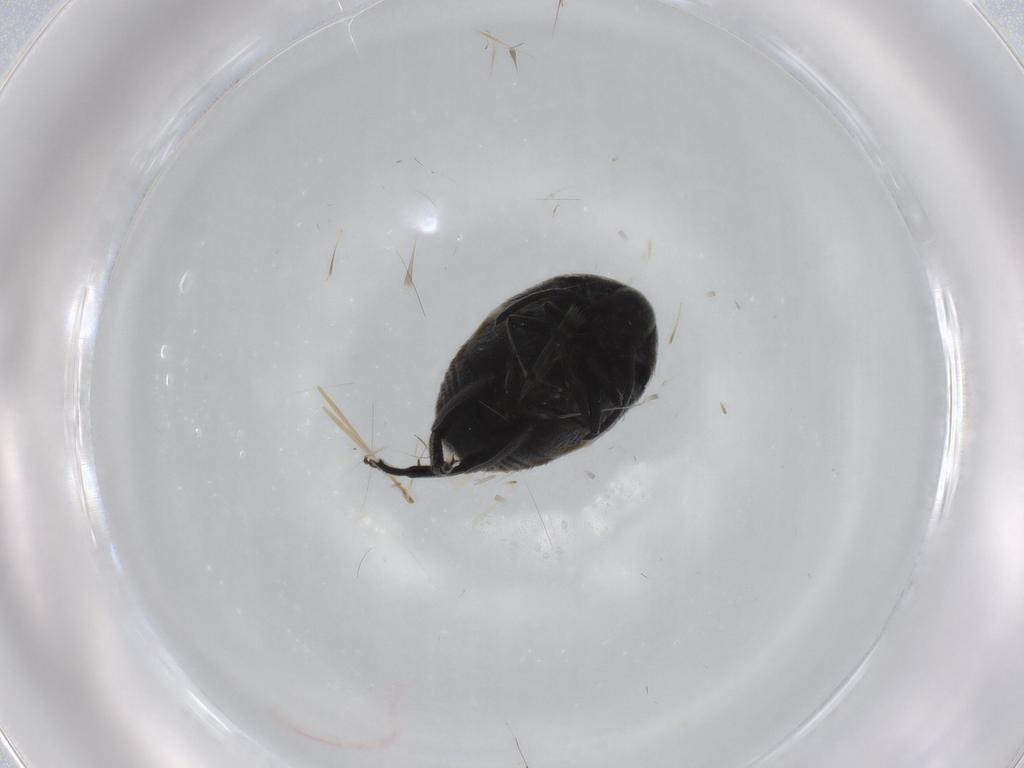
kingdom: Animalia
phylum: Arthropoda
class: Insecta
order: Coleoptera
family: Chrysomelidae
